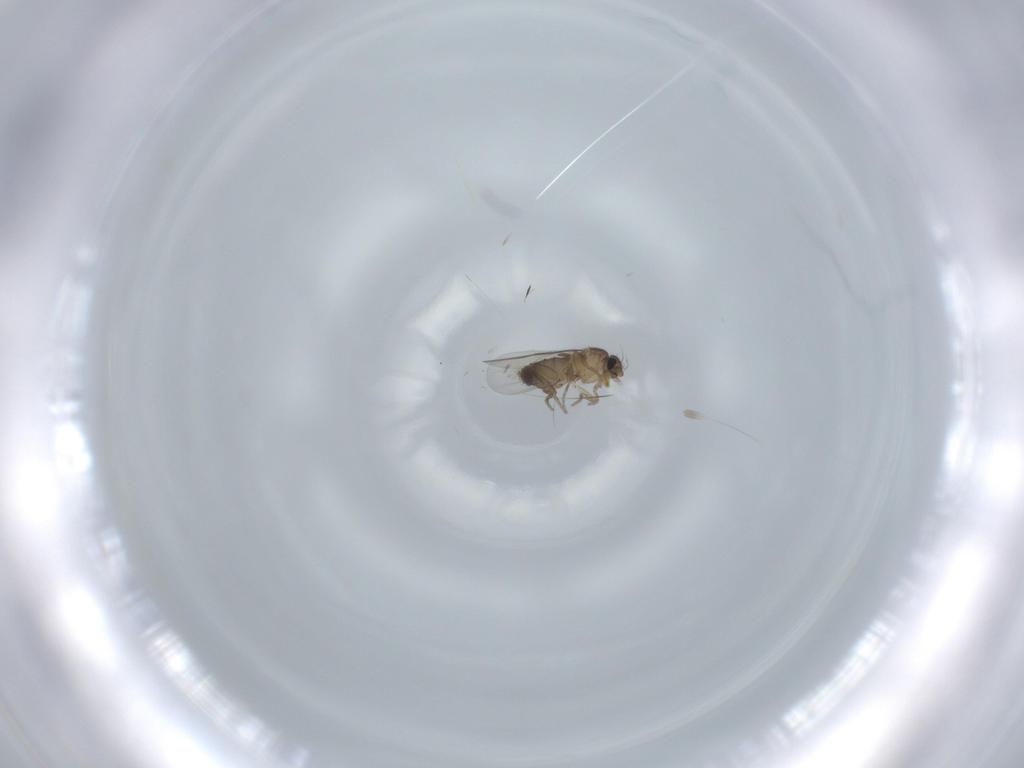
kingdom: Animalia
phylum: Arthropoda
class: Insecta
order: Diptera
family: Phoridae
